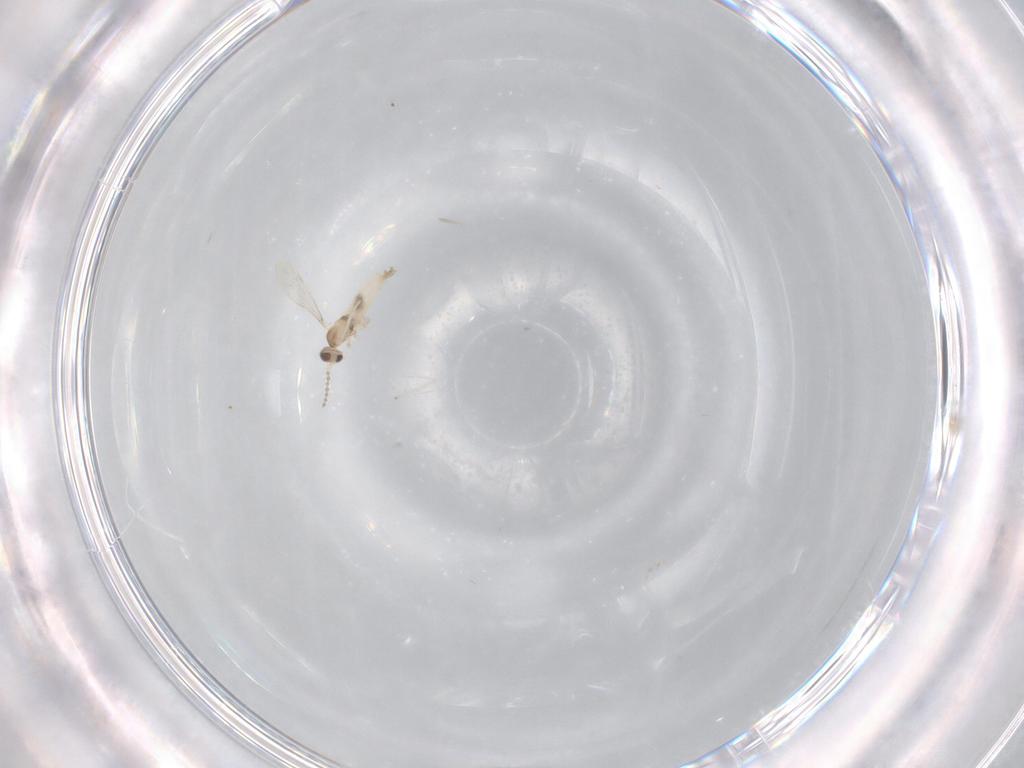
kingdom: Animalia
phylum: Arthropoda
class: Insecta
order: Diptera
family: Cecidomyiidae
